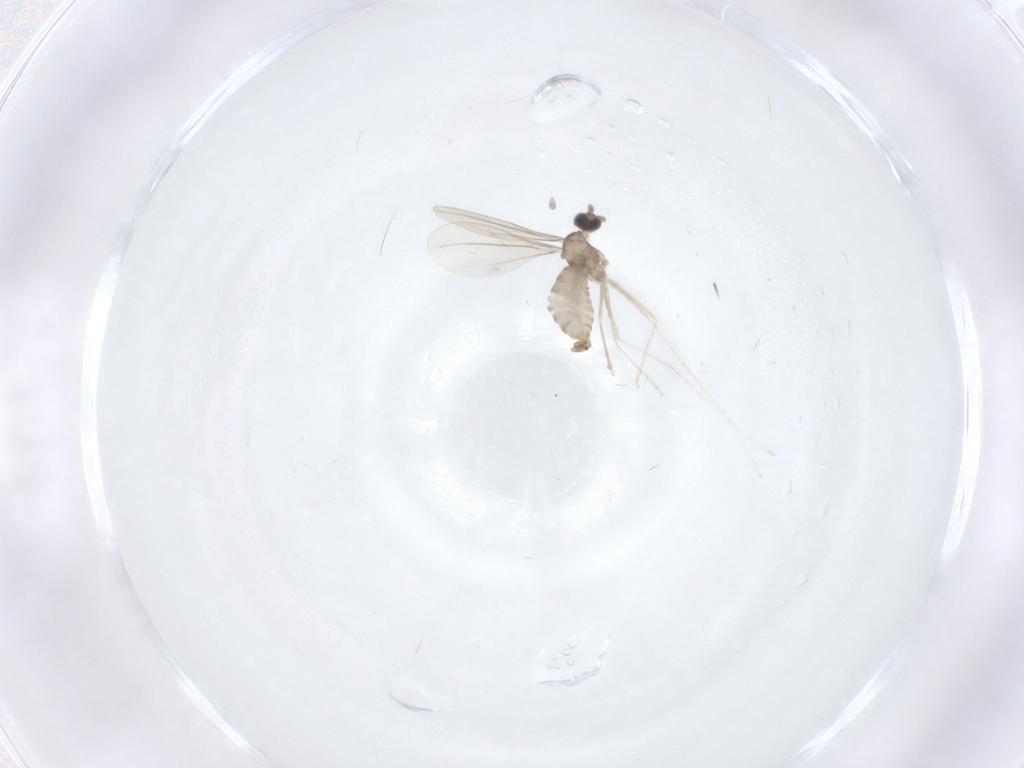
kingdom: Animalia
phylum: Arthropoda
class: Insecta
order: Diptera
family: Cecidomyiidae
